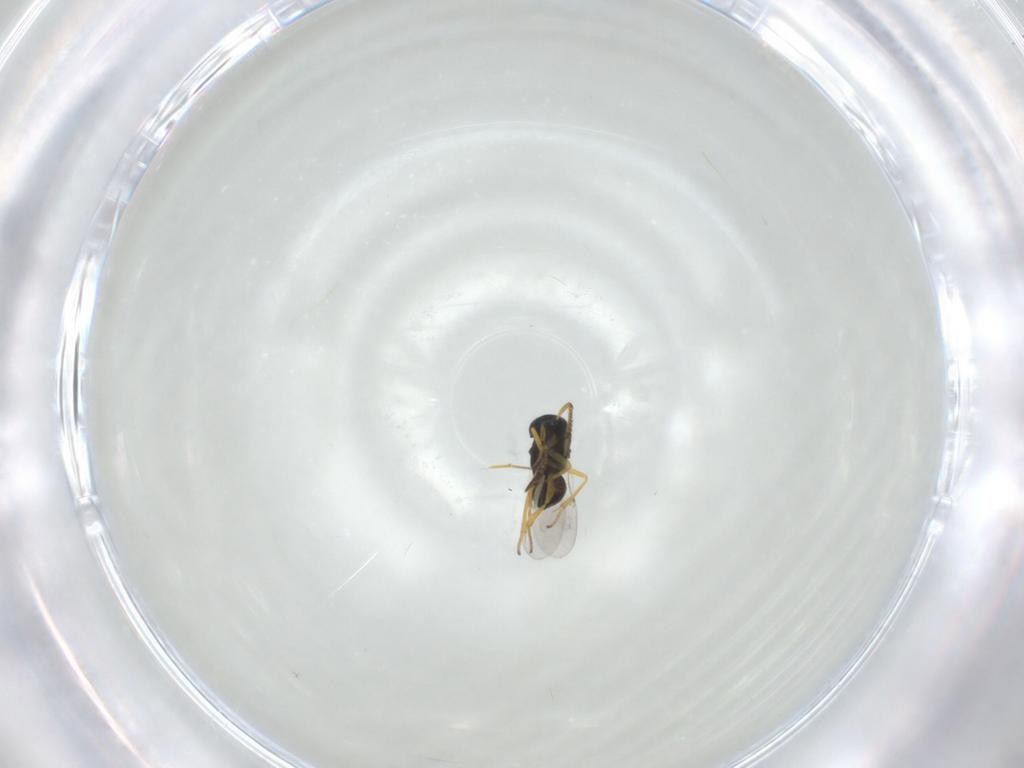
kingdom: Animalia
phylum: Arthropoda
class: Insecta
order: Hymenoptera
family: Encyrtidae
